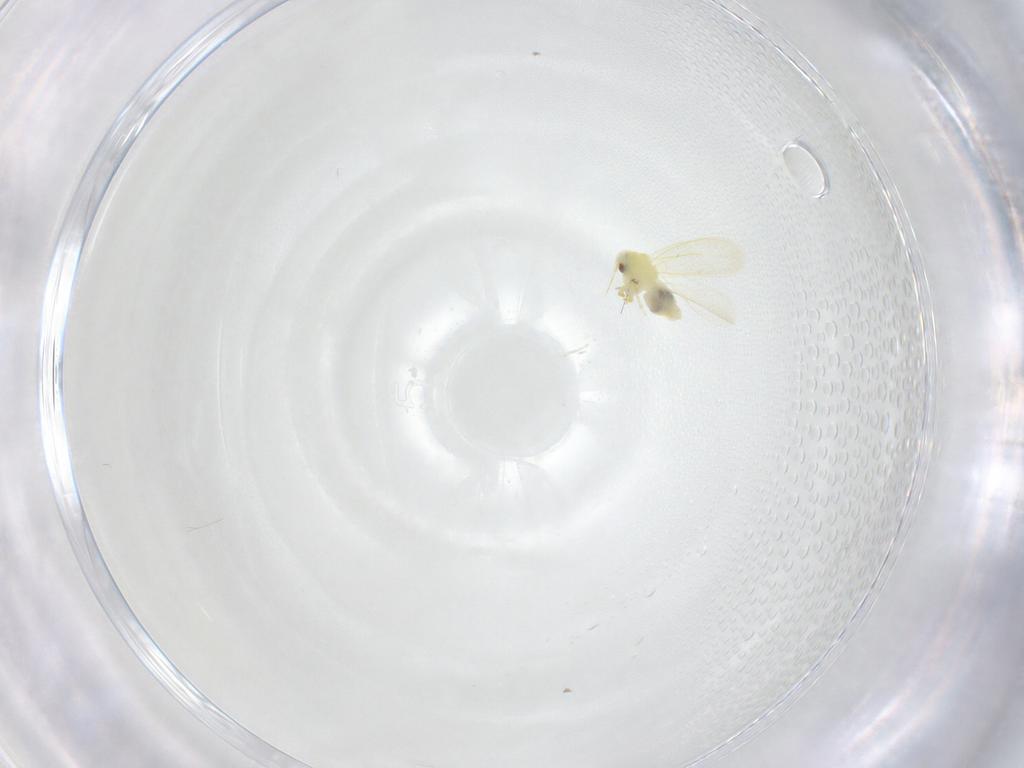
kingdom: Animalia
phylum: Arthropoda
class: Insecta
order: Hemiptera
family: Aleyrodidae
